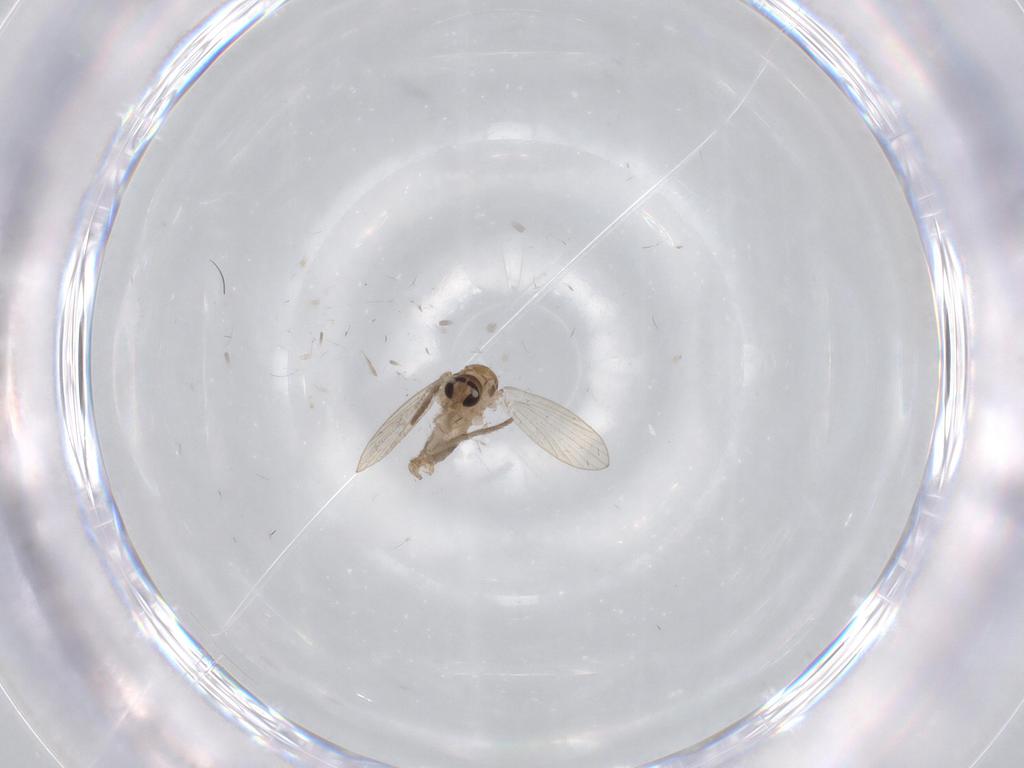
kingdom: Animalia
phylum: Arthropoda
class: Insecta
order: Diptera
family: Psychodidae
